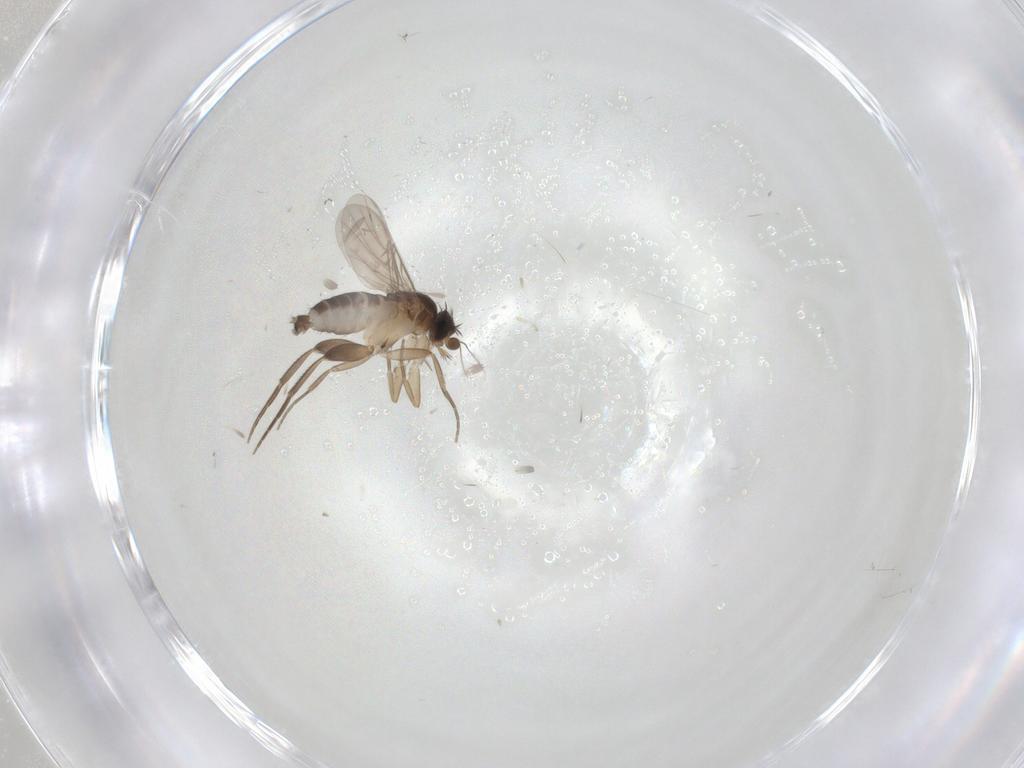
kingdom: Animalia
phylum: Arthropoda
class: Insecta
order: Diptera
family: Phoridae
